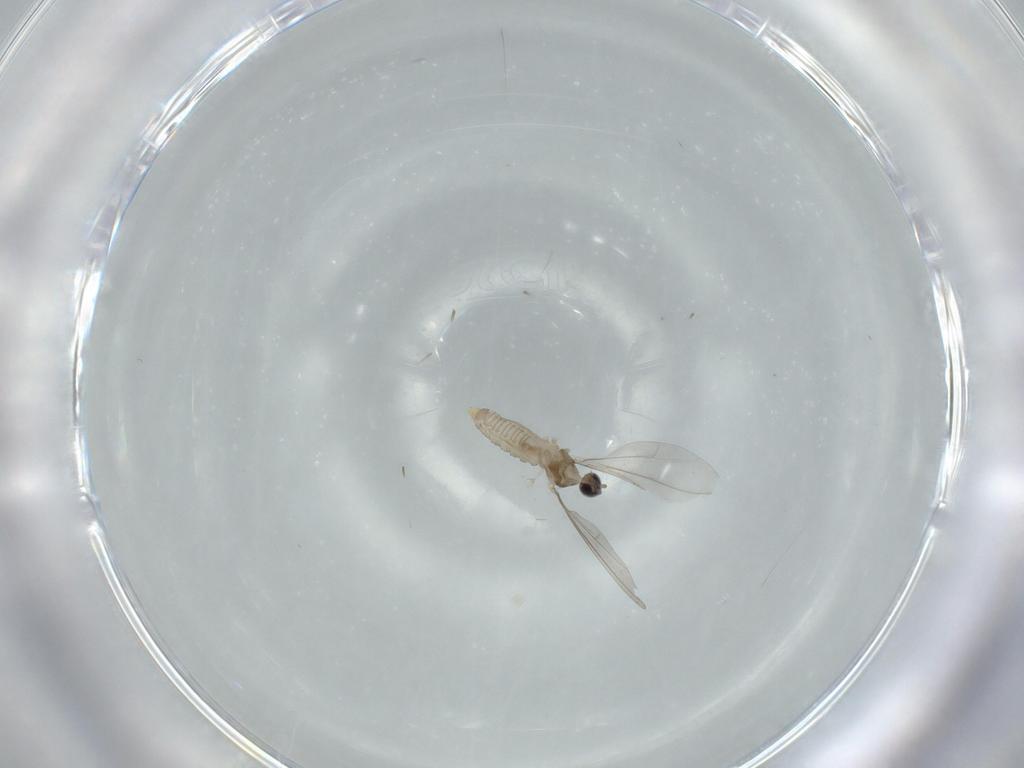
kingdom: Animalia
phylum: Arthropoda
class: Insecta
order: Diptera
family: Cecidomyiidae
